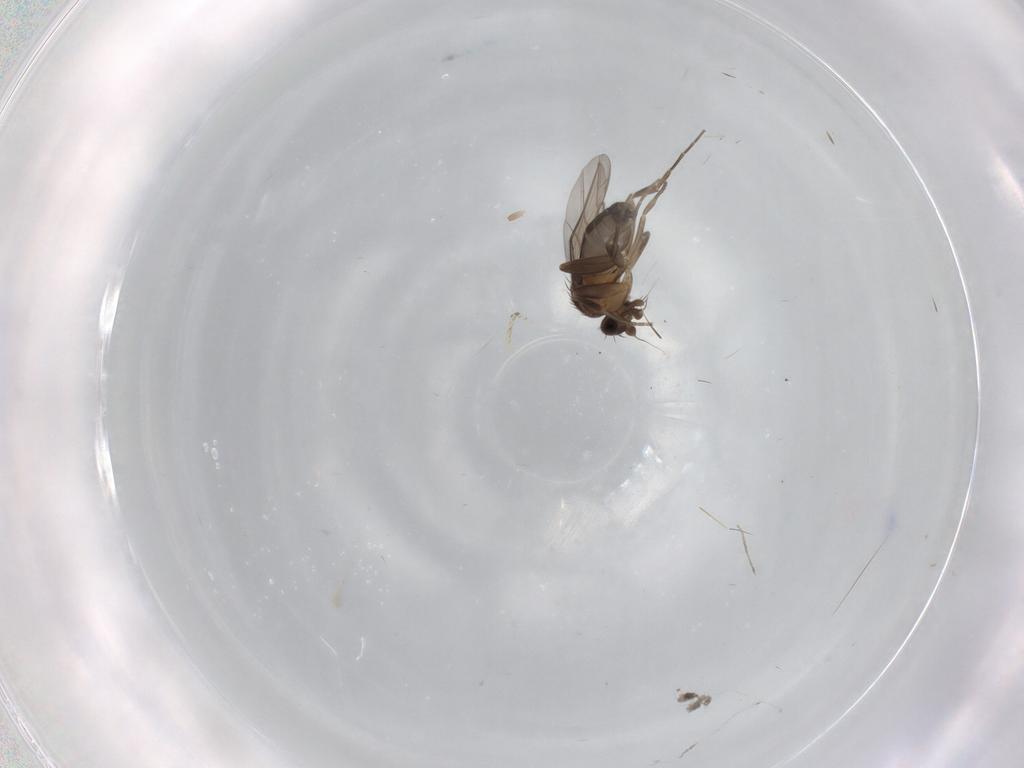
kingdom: Animalia
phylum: Arthropoda
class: Insecta
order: Diptera
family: Phoridae
